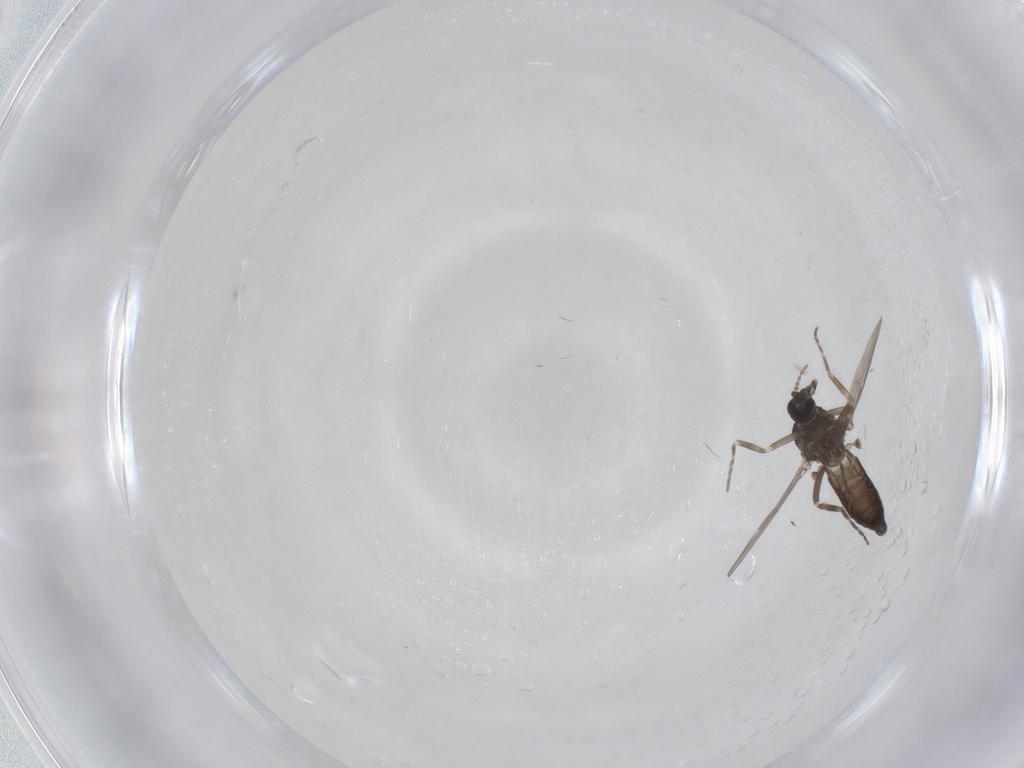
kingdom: Animalia
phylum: Arthropoda
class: Insecta
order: Diptera
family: Ceratopogonidae
